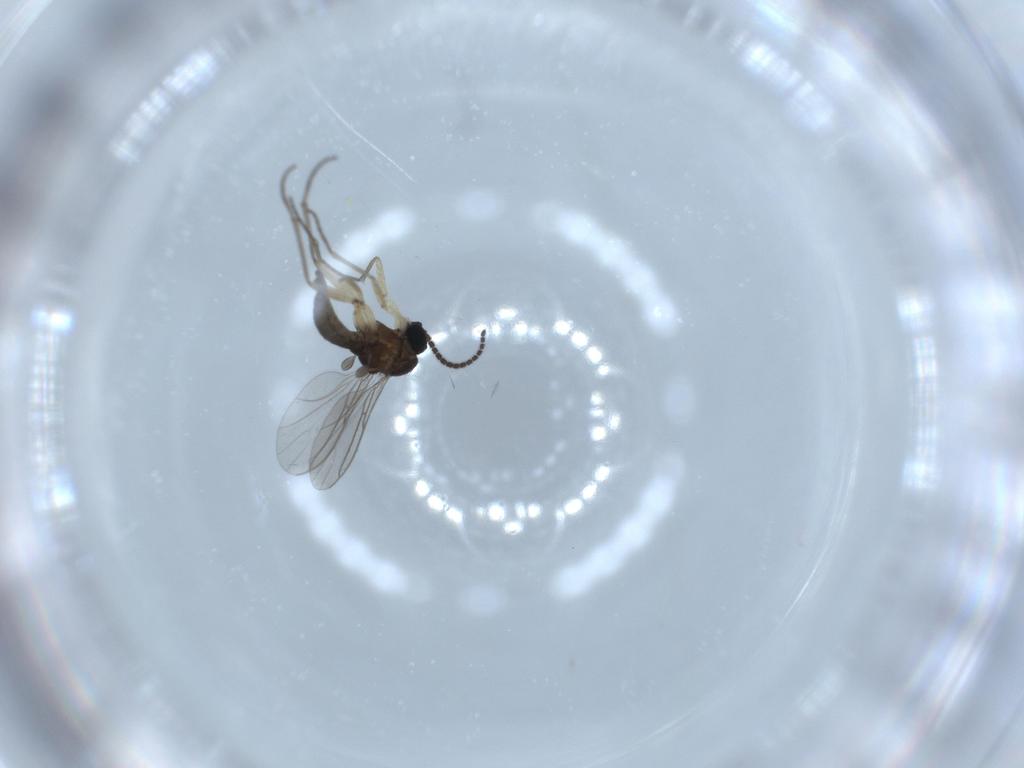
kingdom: Animalia
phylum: Arthropoda
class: Insecta
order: Diptera
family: Sciaridae
